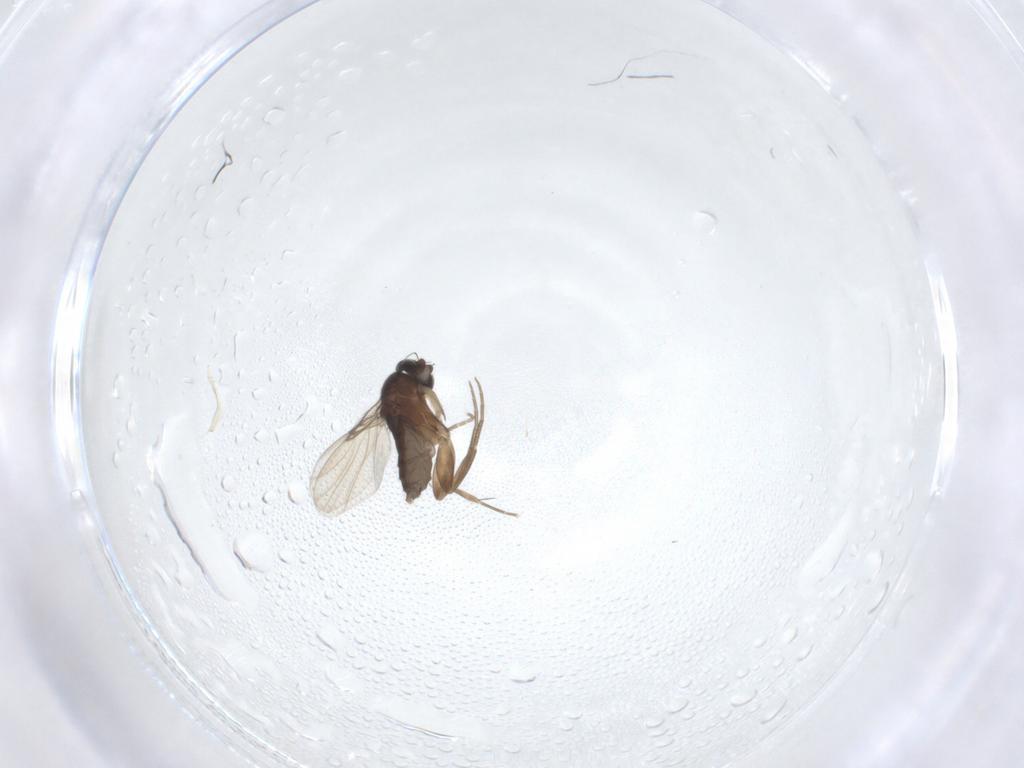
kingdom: Animalia
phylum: Arthropoda
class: Insecta
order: Diptera
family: Phoridae
